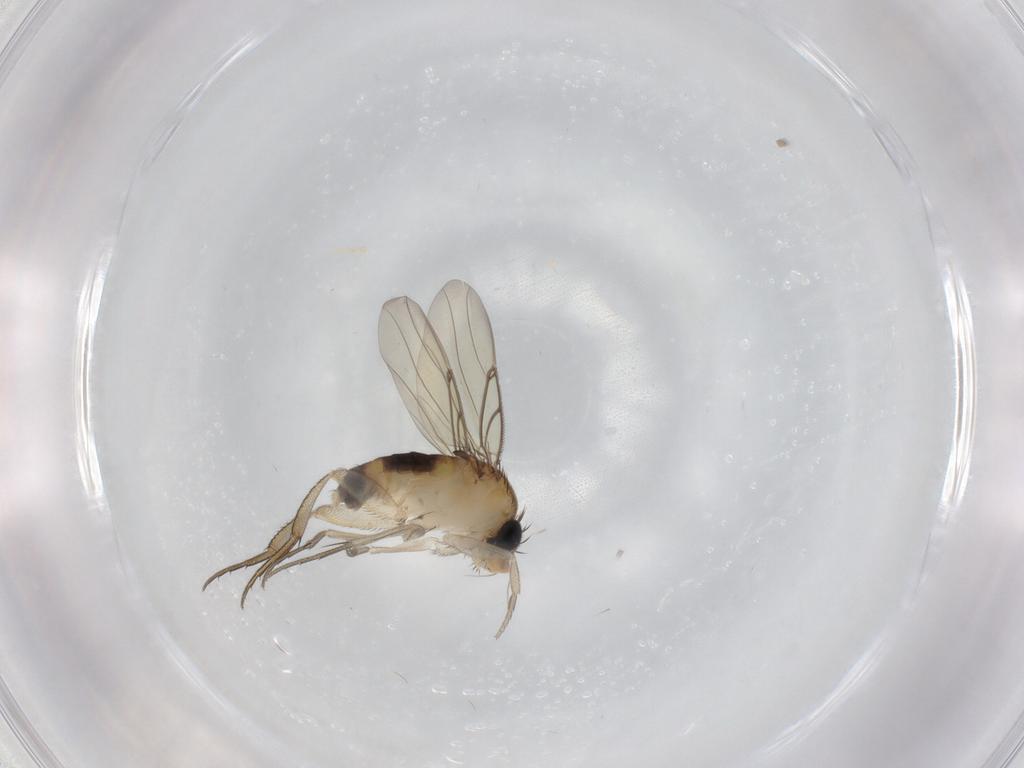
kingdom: Animalia
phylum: Arthropoda
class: Insecta
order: Diptera
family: Phoridae
